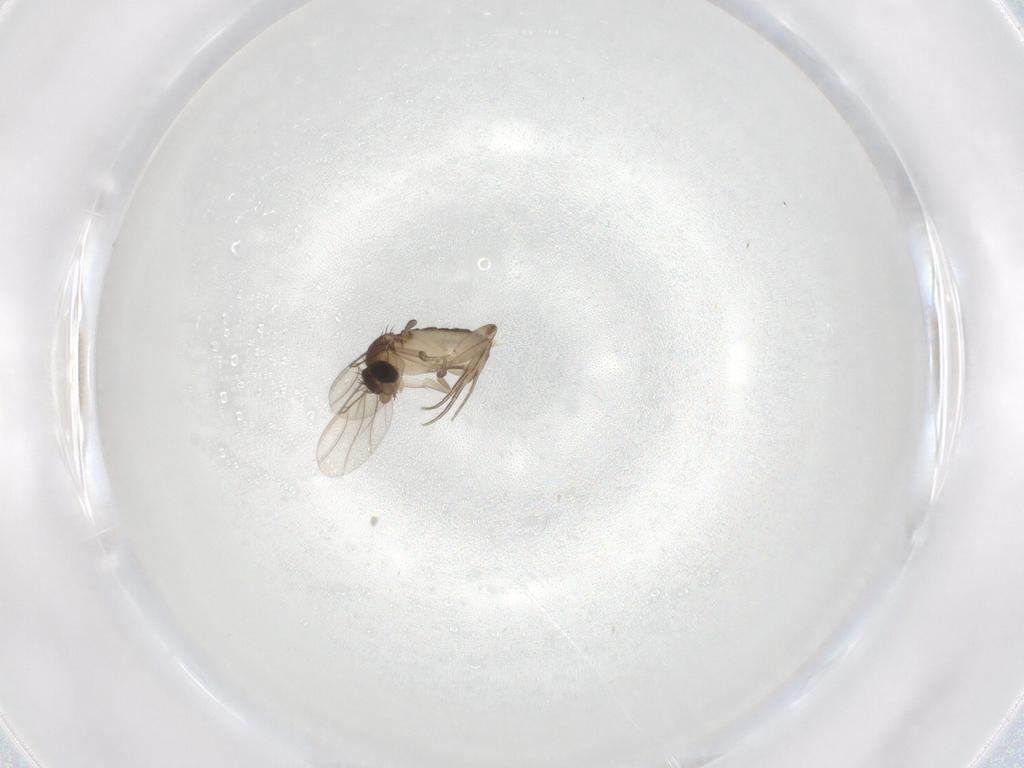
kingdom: Animalia
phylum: Arthropoda
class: Insecta
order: Diptera
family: Phoridae
